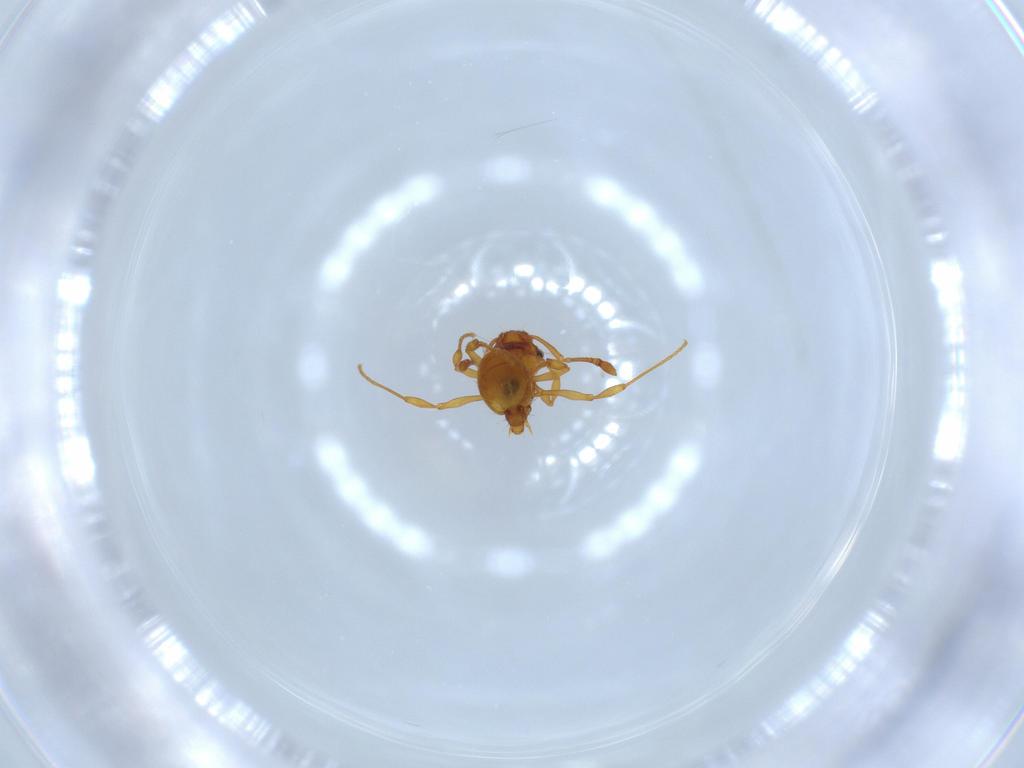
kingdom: Animalia
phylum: Arthropoda
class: Insecta
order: Hymenoptera
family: Formicidae
